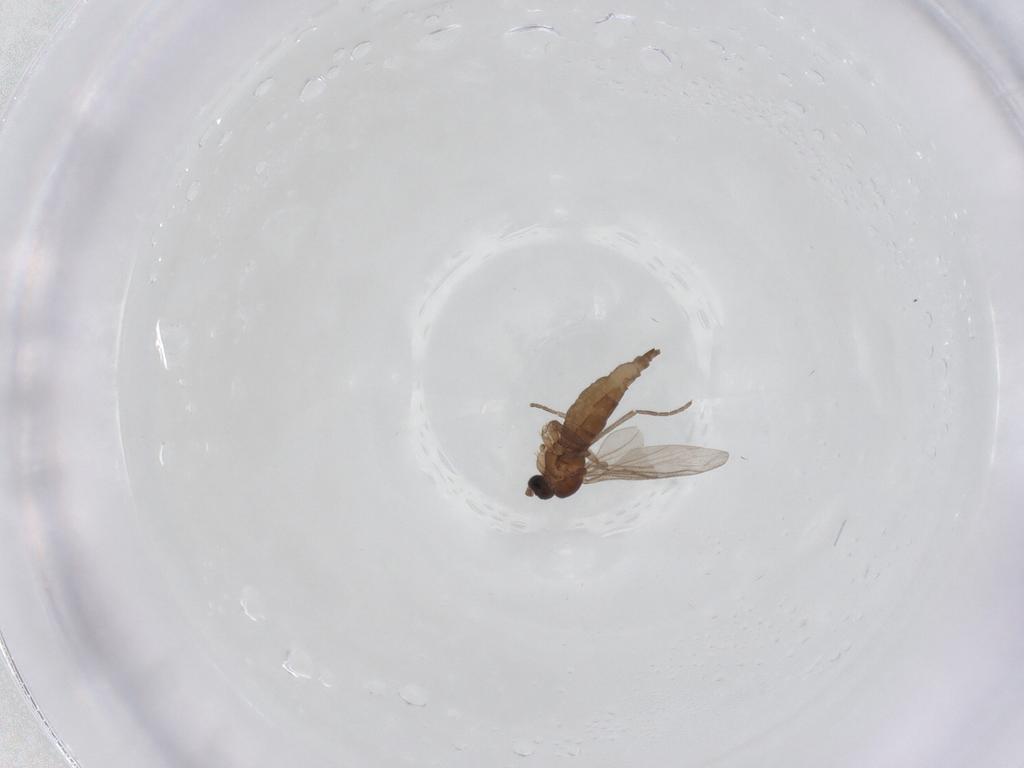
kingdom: Animalia
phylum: Arthropoda
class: Insecta
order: Diptera
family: Sciaridae
